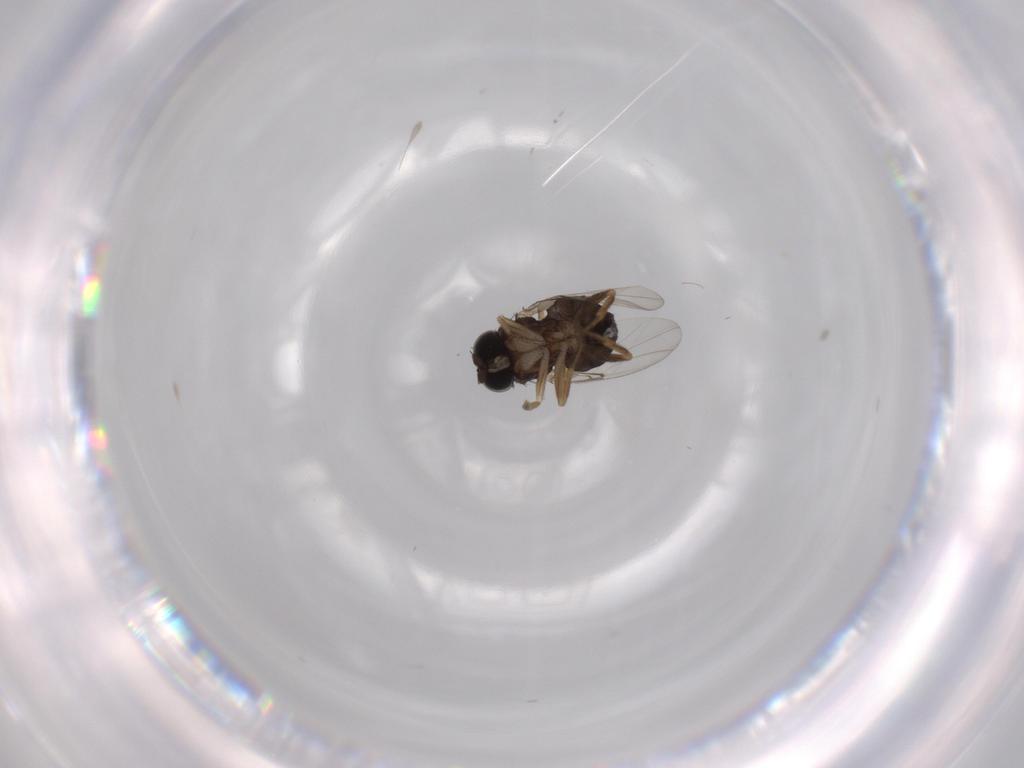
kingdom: Animalia
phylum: Arthropoda
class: Insecta
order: Diptera
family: Phoridae
